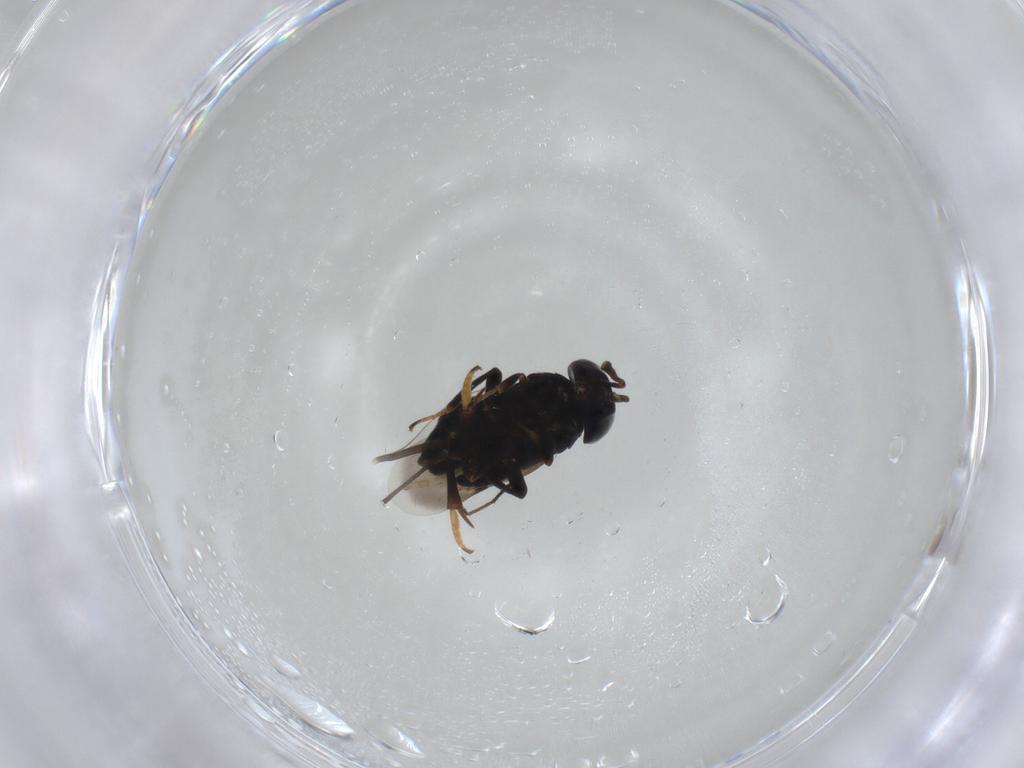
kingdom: Animalia
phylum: Arthropoda
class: Insecta
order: Hymenoptera
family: Encyrtidae
